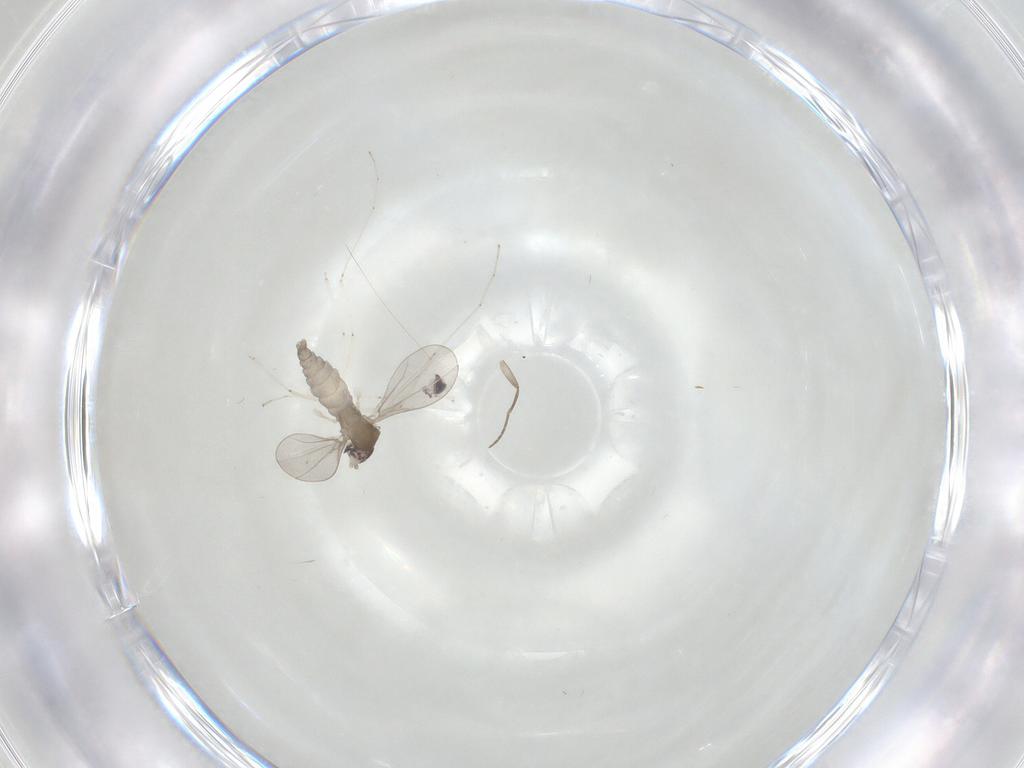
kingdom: Animalia
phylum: Arthropoda
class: Insecta
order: Diptera
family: Cecidomyiidae
